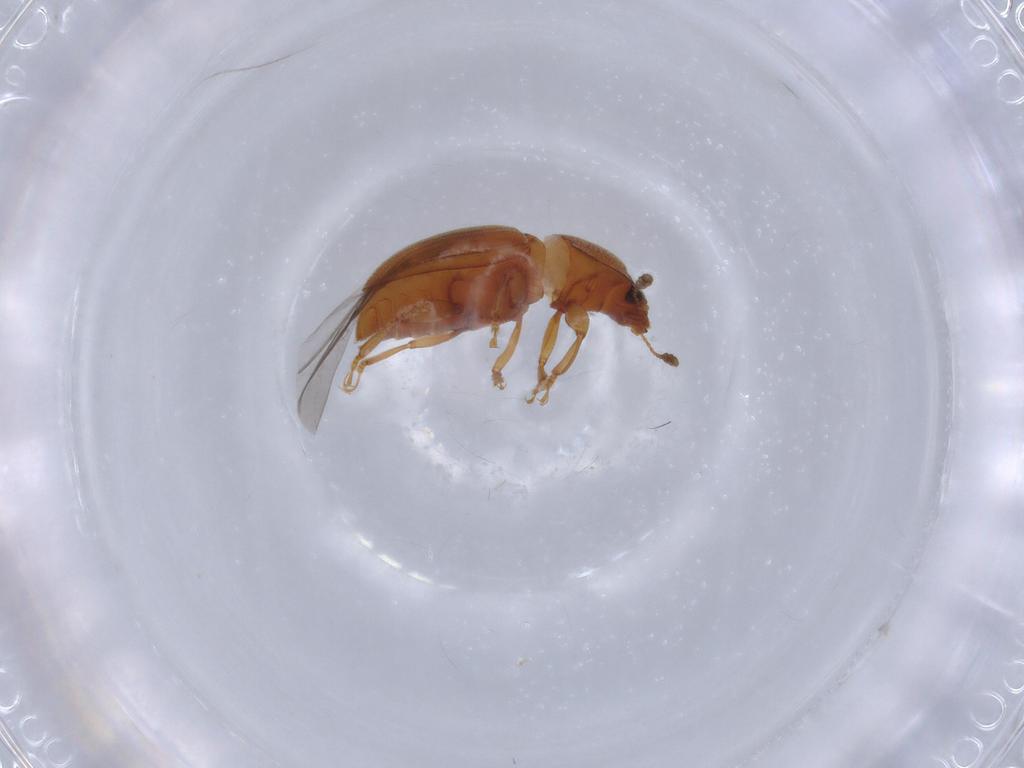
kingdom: Animalia
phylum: Arthropoda
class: Insecta
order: Coleoptera
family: Nitidulidae
